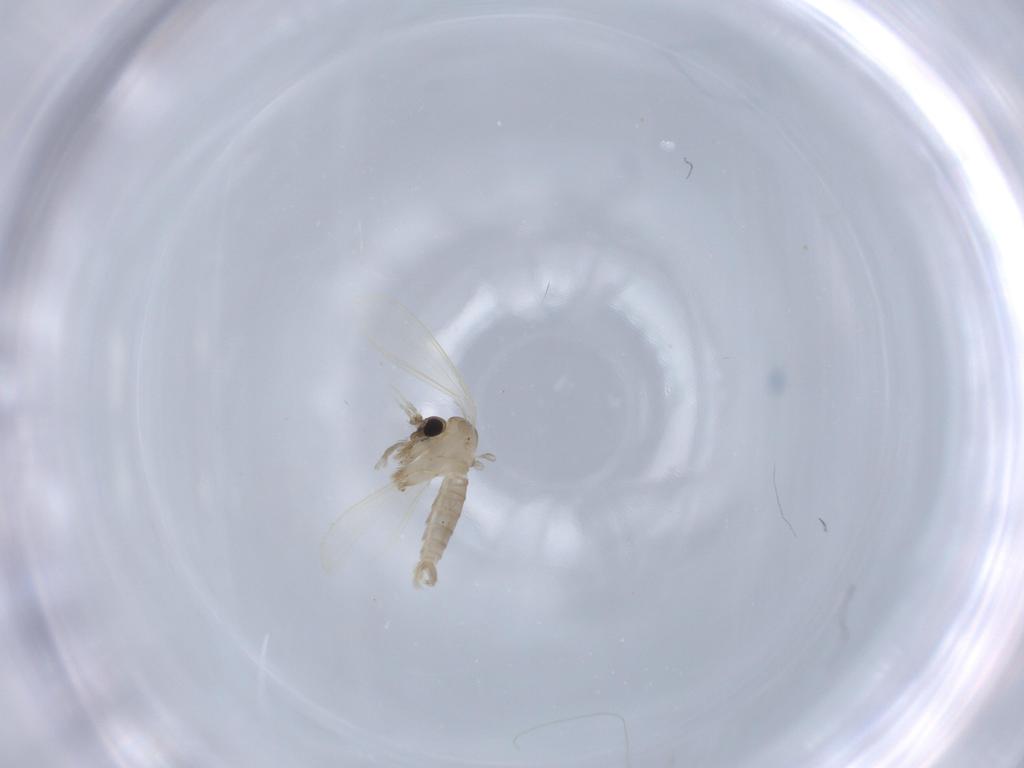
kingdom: Animalia
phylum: Arthropoda
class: Insecta
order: Diptera
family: Psychodidae
